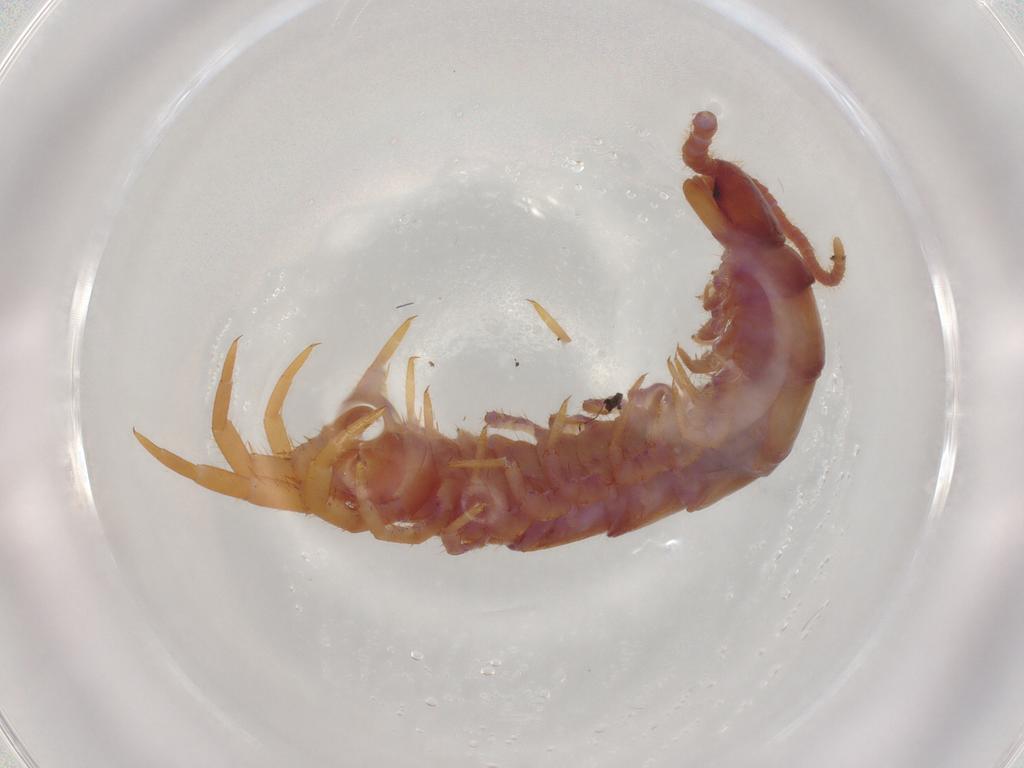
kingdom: Animalia
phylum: Arthropoda
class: Chilopoda
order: Lithobiomorpha
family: Lithobiidae
